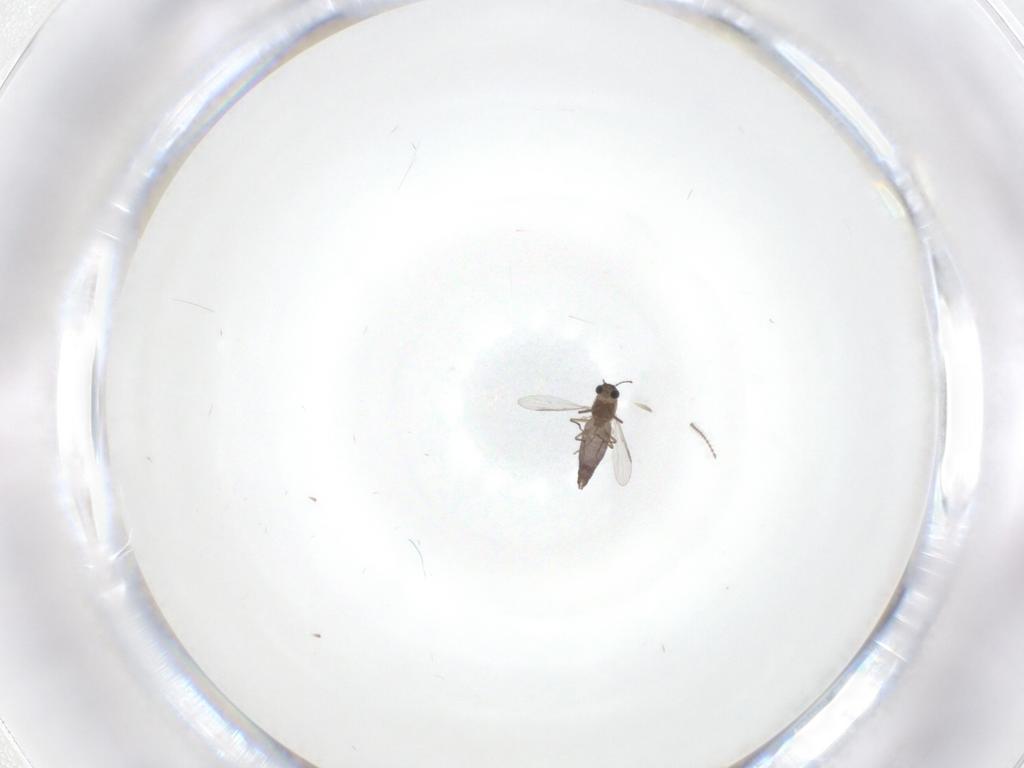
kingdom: Animalia
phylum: Arthropoda
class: Insecta
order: Diptera
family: Chironomidae
